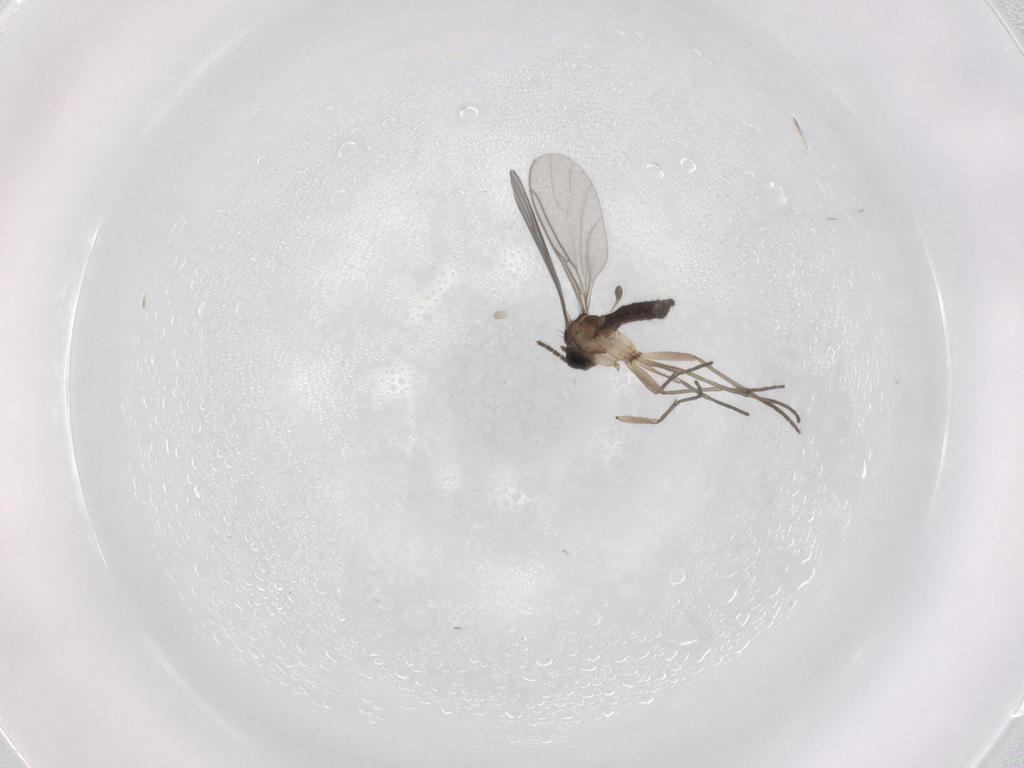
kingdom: Animalia
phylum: Arthropoda
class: Insecta
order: Diptera
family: Sciaridae
